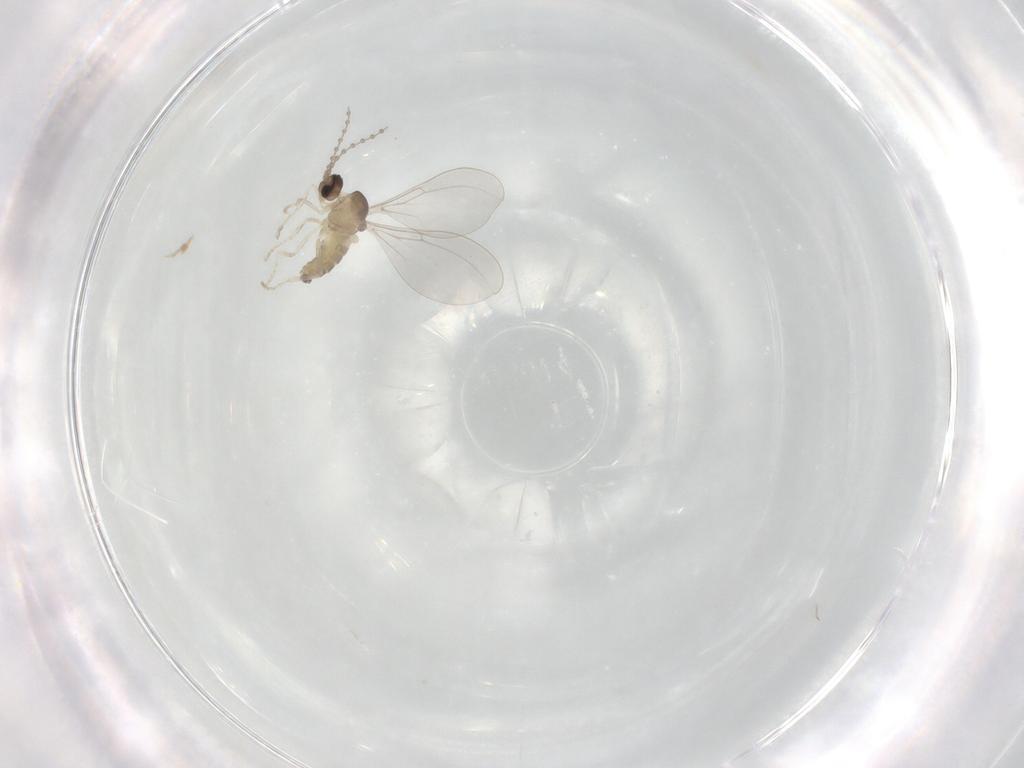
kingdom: Animalia
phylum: Arthropoda
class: Insecta
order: Diptera
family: Cecidomyiidae
